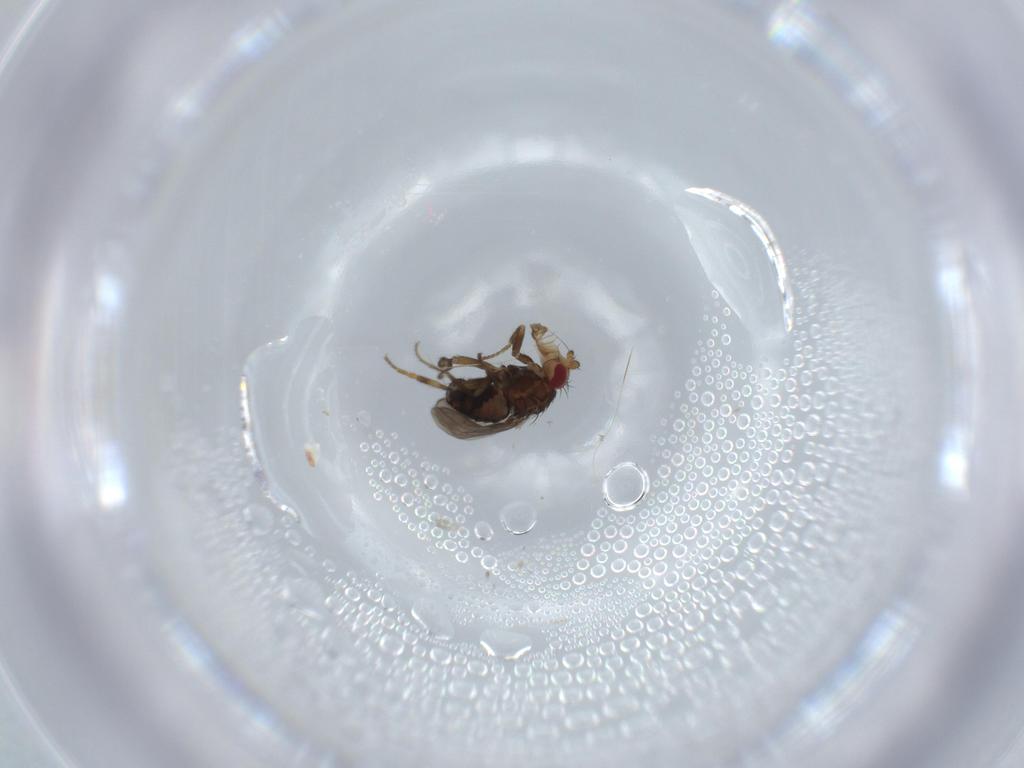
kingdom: Animalia
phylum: Arthropoda
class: Insecta
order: Diptera
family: Sphaeroceridae
